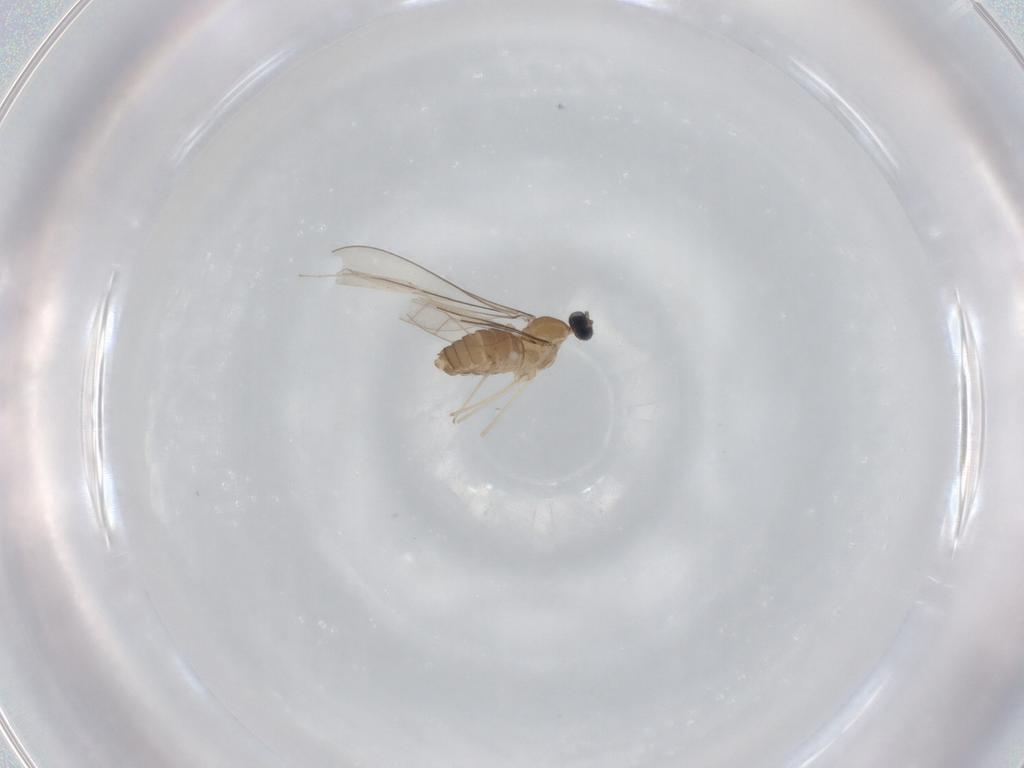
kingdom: Animalia
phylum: Arthropoda
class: Insecta
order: Diptera
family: Cecidomyiidae
